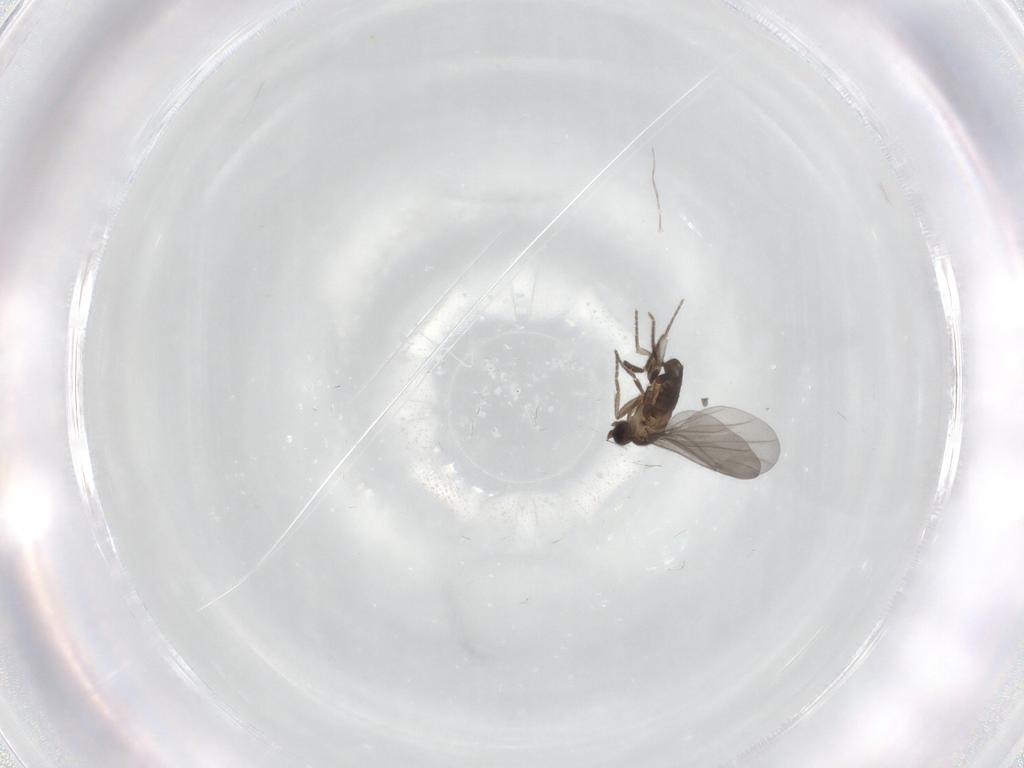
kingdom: Animalia
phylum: Arthropoda
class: Insecta
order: Diptera
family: Phoridae
